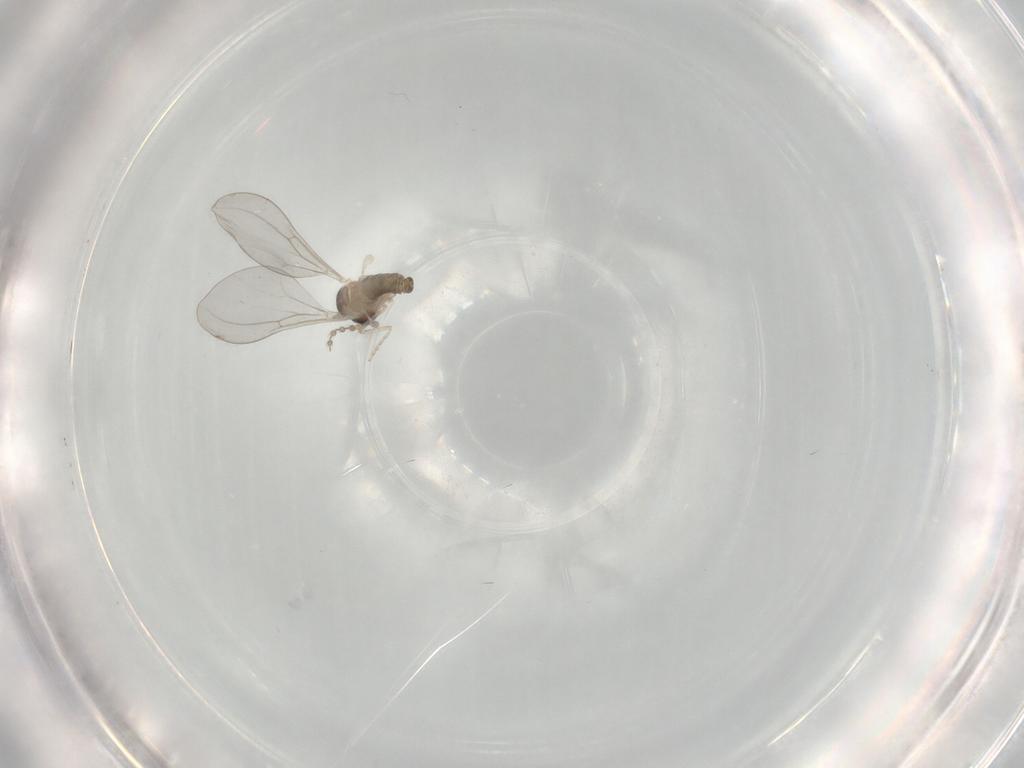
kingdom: Animalia
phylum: Arthropoda
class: Insecta
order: Diptera
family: Cecidomyiidae
